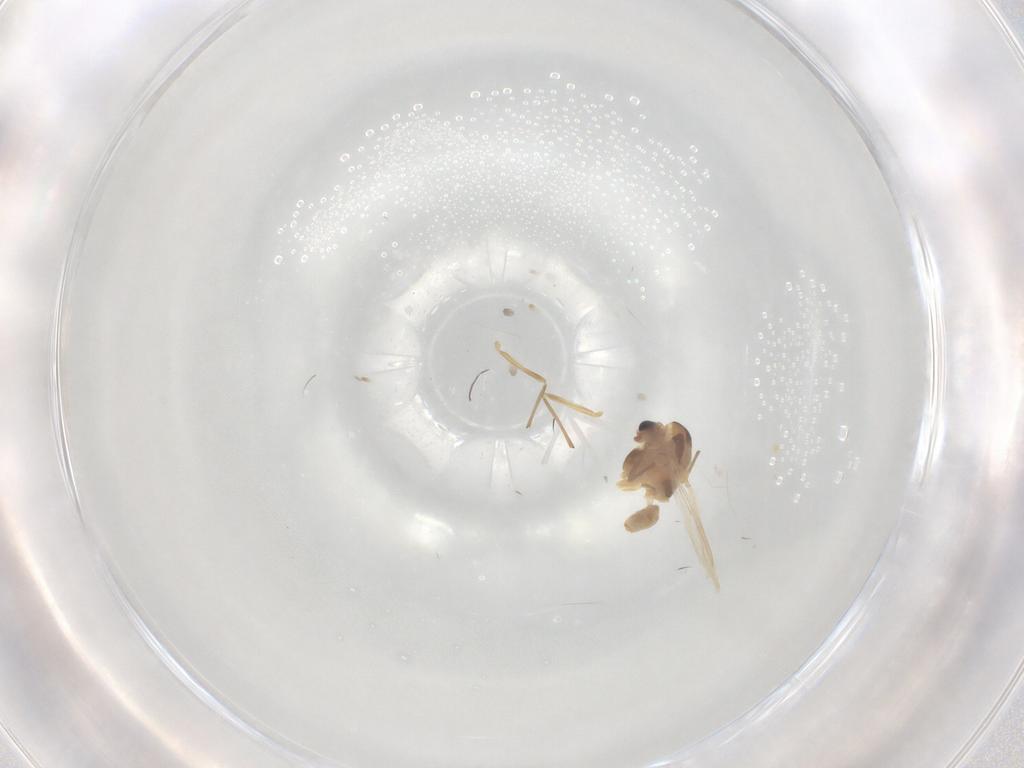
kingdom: Animalia
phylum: Arthropoda
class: Insecta
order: Diptera
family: Chironomidae
